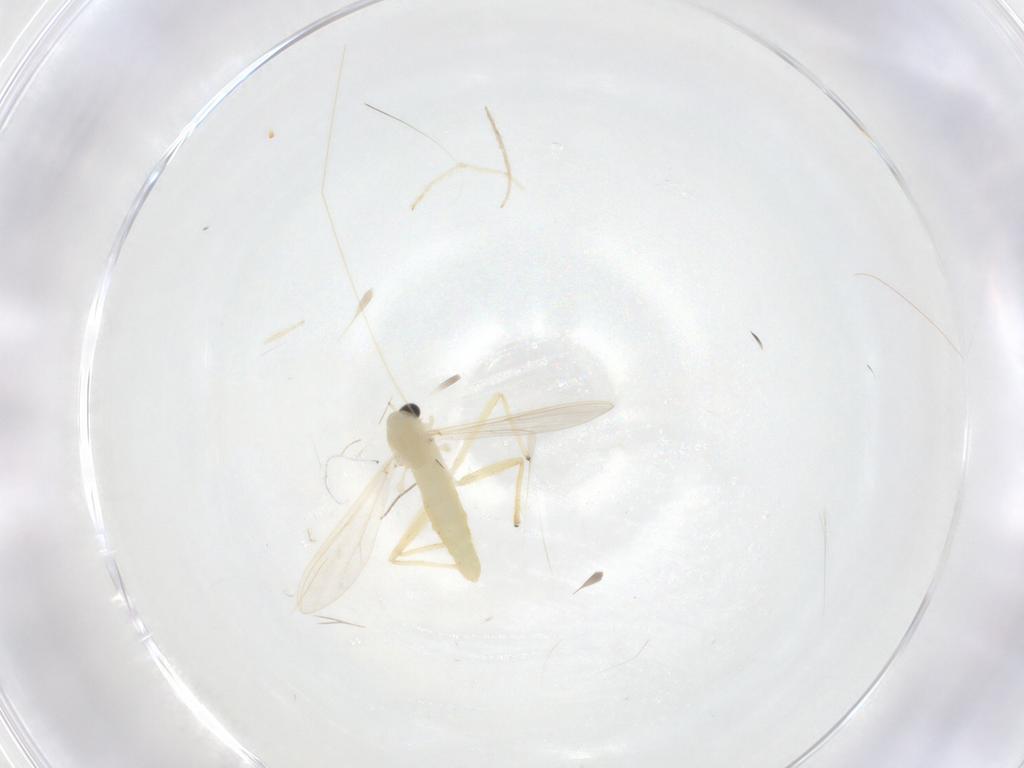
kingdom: Animalia
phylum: Arthropoda
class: Insecta
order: Diptera
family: Chironomidae
